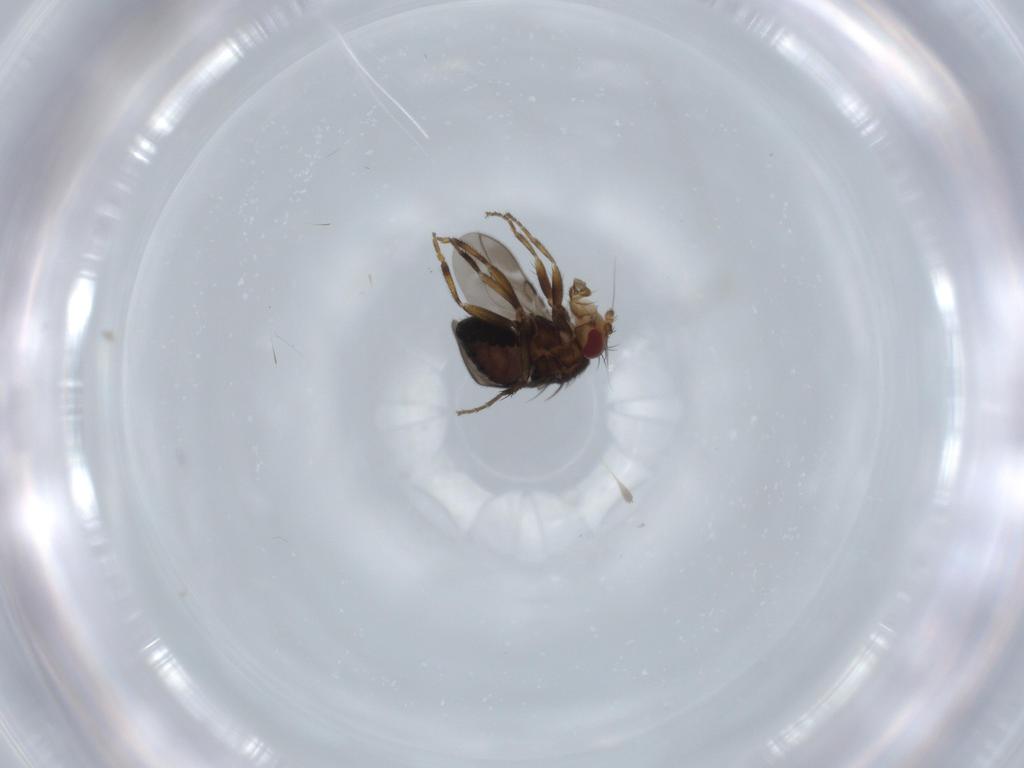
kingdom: Animalia
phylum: Arthropoda
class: Insecta
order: Diptera
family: Sphaeroceridae
